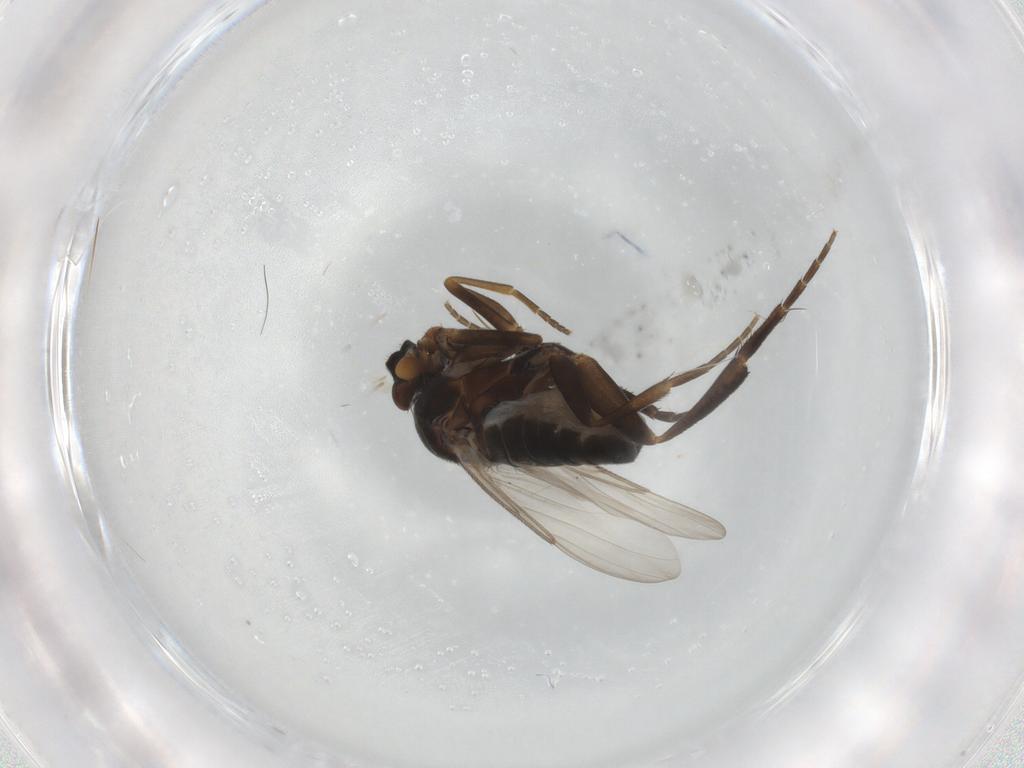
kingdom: Animalia
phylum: Arthropoda
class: Insecta
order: Diptera
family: Phoridae
